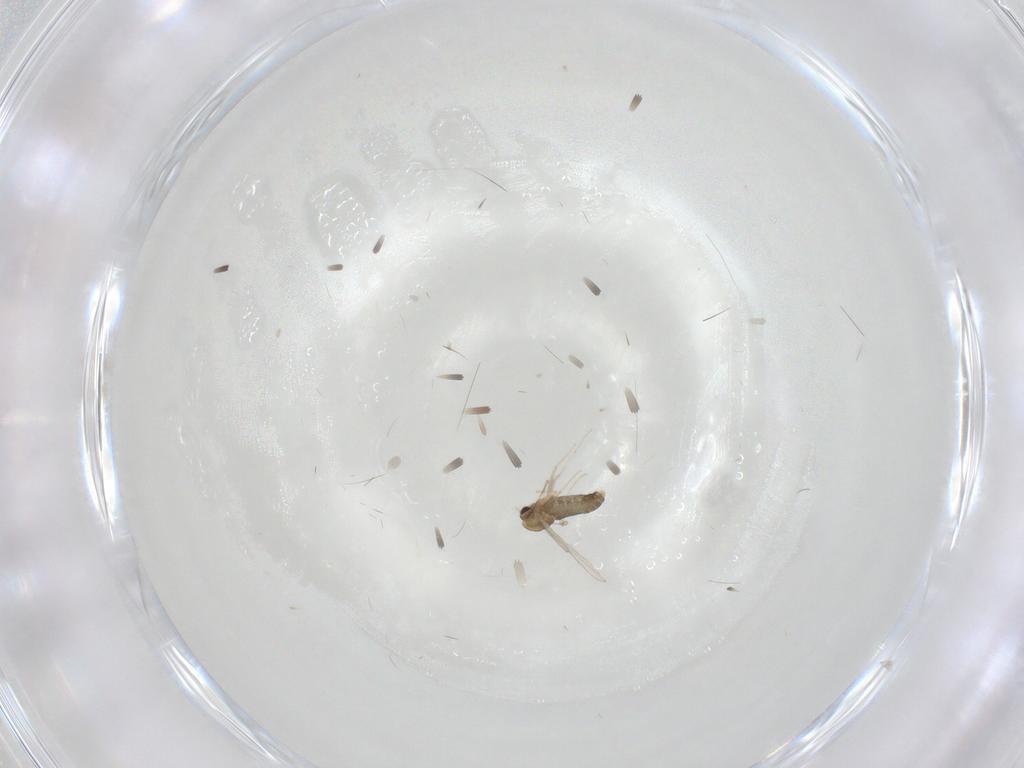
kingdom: Animalia
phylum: Arthropoda
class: Insecta
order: Diptera
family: Chironomidae
